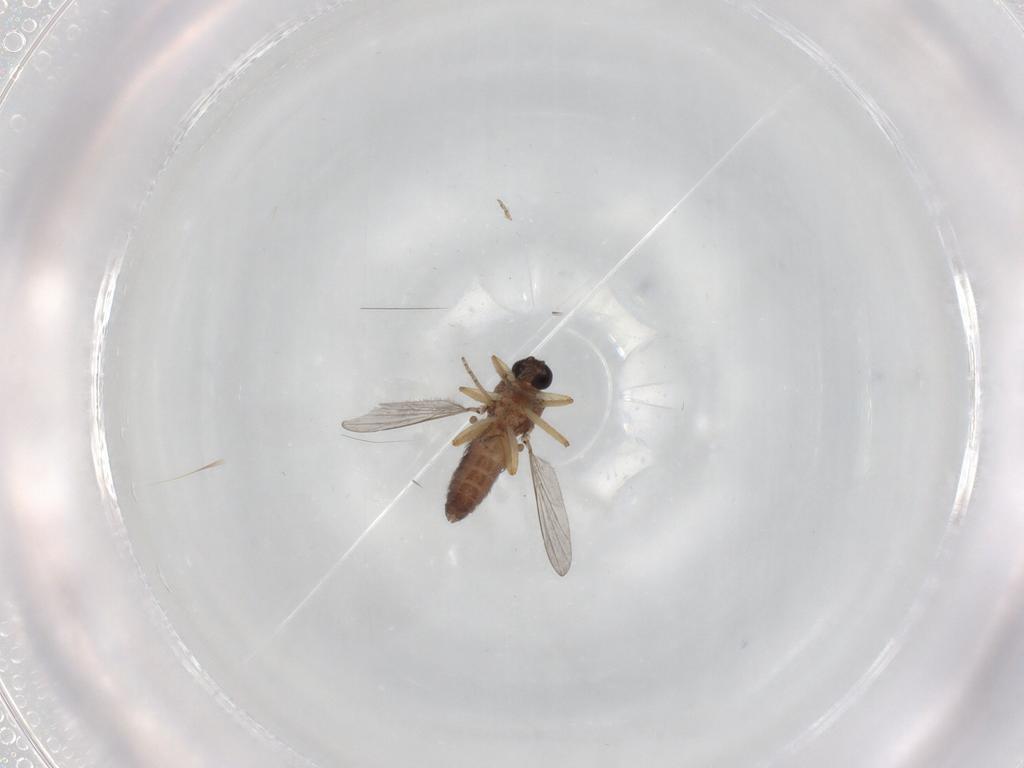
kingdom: Animalia
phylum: Arthropoda
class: Insecta
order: Diptera
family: Ceratopogonidae
